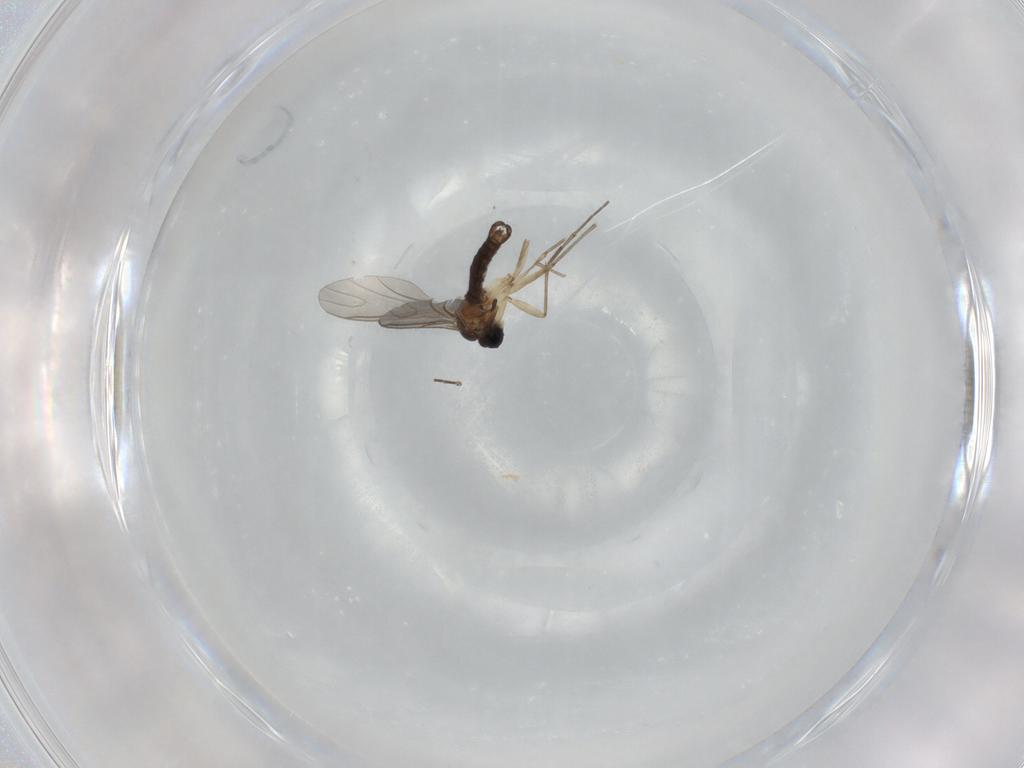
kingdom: Animalia
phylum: Arthropoda
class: Insecta
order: Diptera
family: Sciaridae
